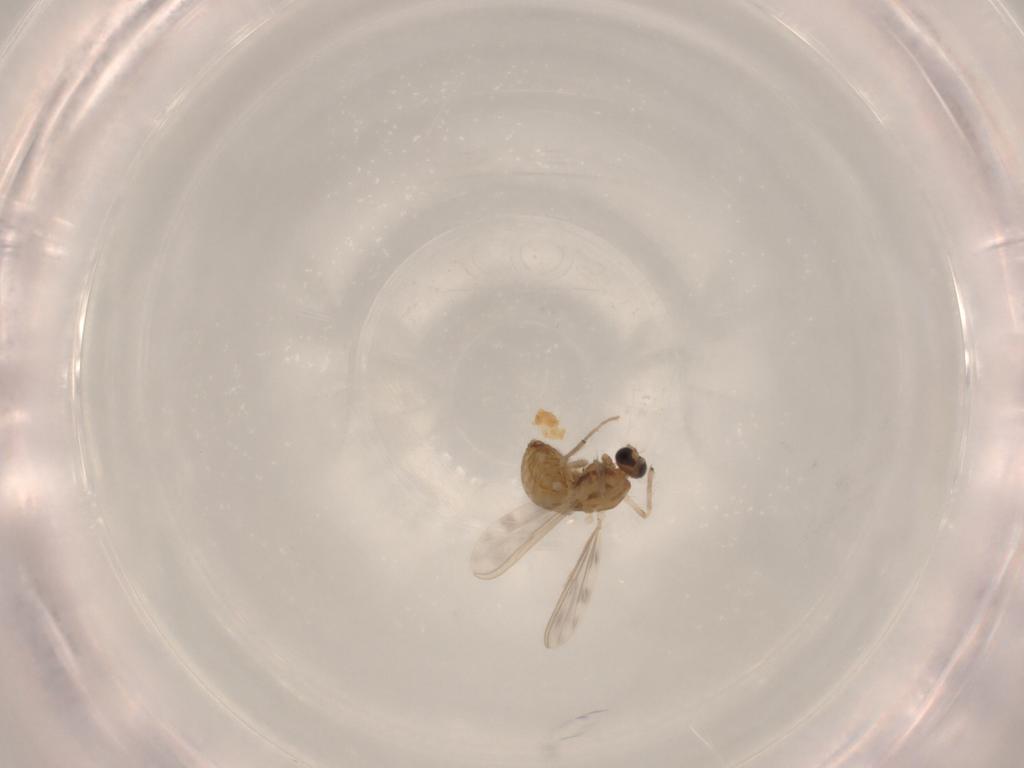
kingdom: Animalia
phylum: Arthropoda
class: Insecta
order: Diptera
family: Chironomidae
